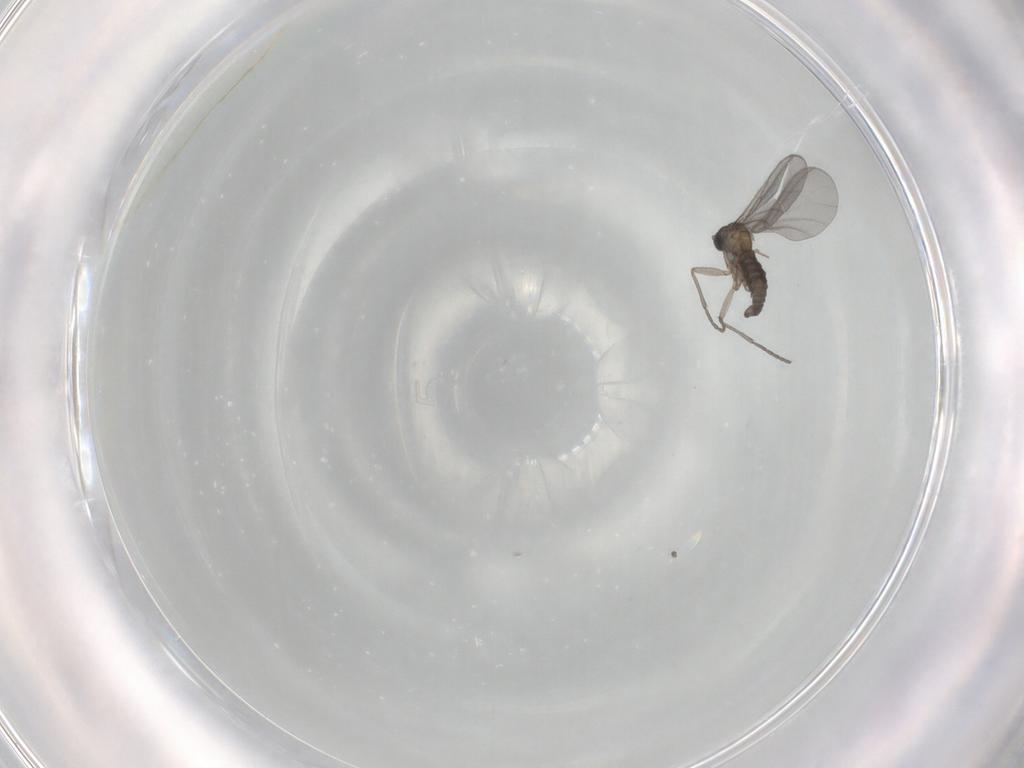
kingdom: Animalia
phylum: Arthropoda
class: Insecta
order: Diptera
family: Sciaridae
